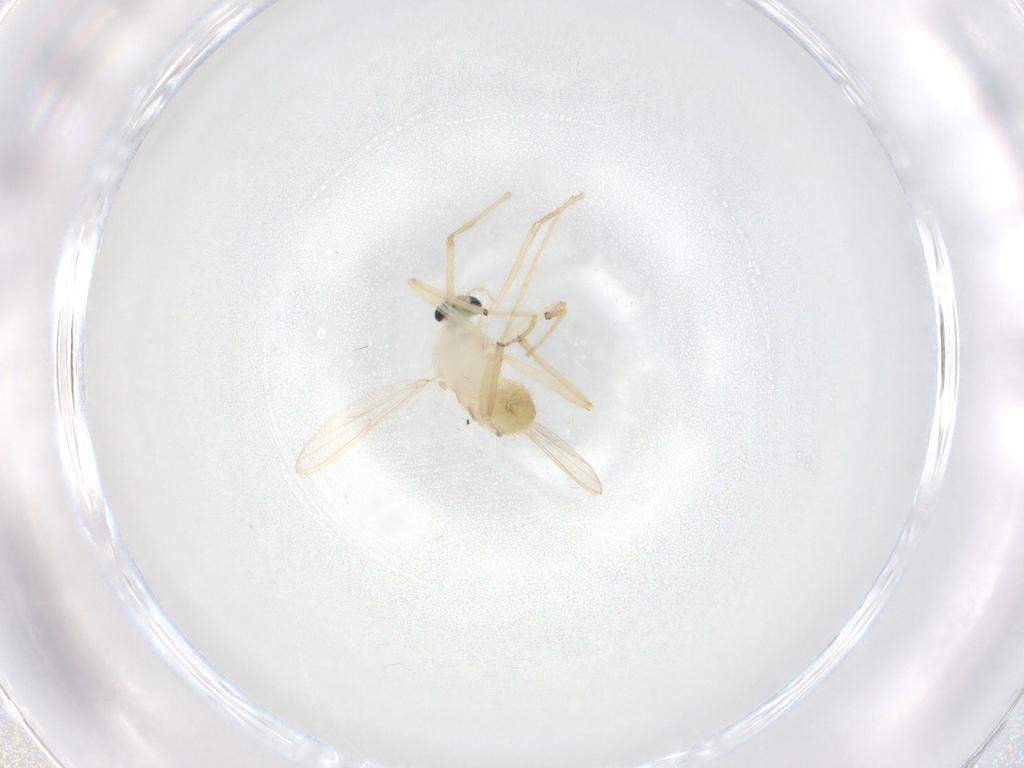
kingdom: Animalia
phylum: Arthropoda
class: Insecta
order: Diptera
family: Chironomidae
